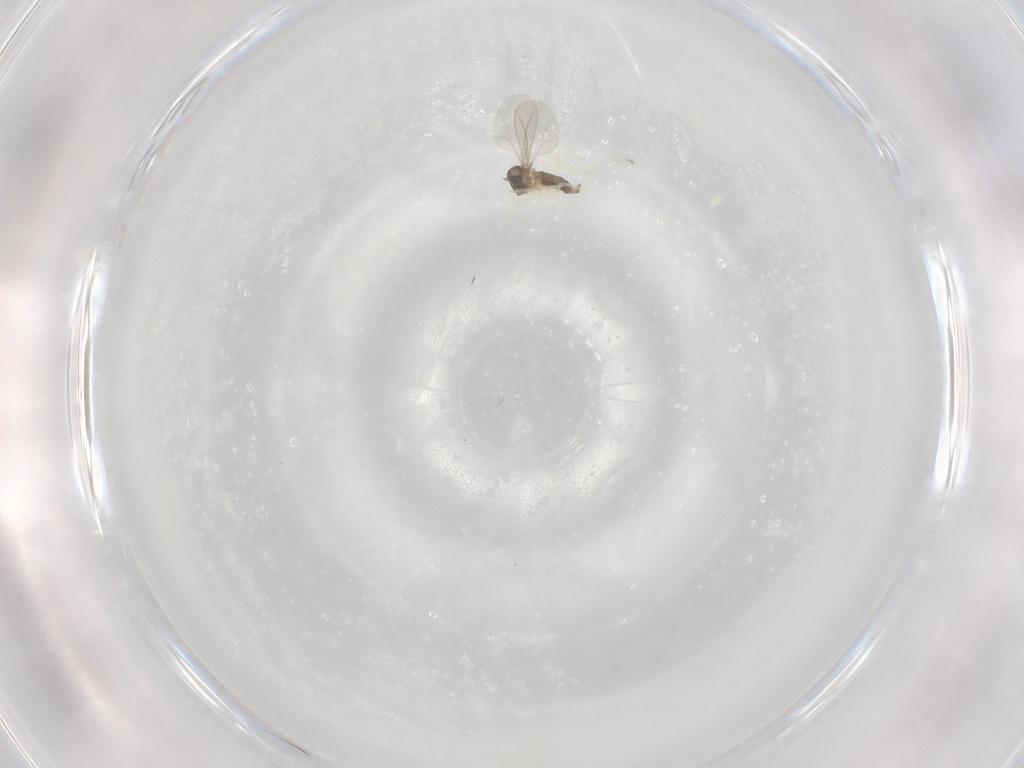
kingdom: Animalia
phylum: Arthropoda
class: Insecta
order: Diptera
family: Cecidomyiidae
